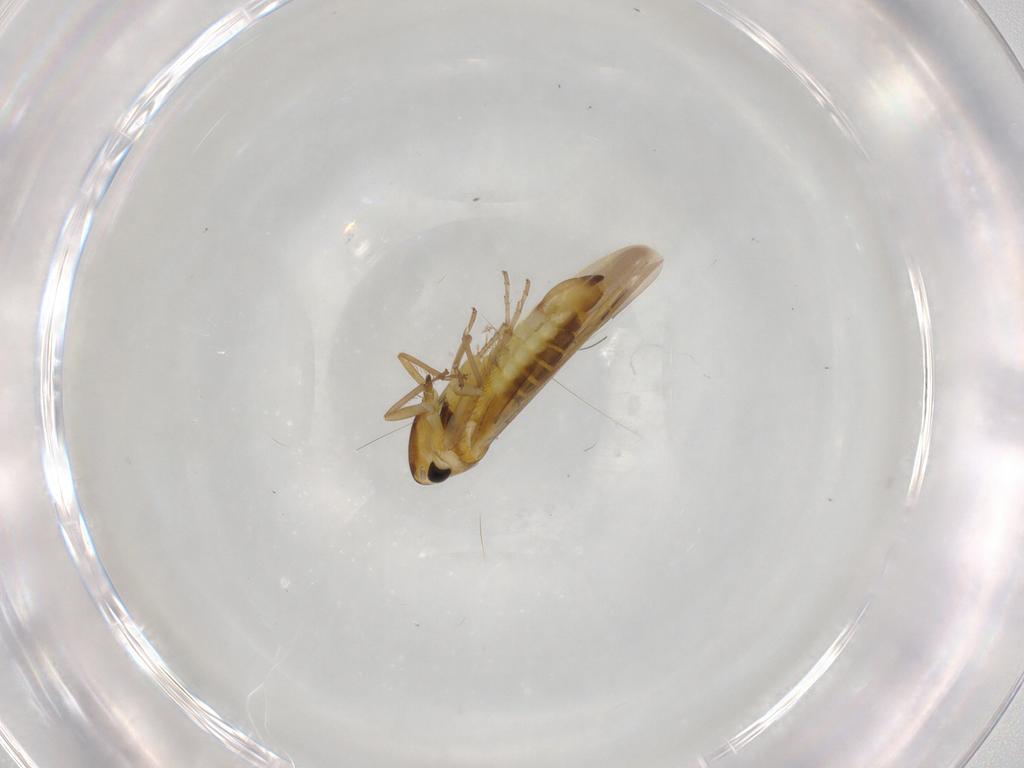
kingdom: Animalia
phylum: Arthropoda
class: Insecta
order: Hemiptera
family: Cicadellidae
